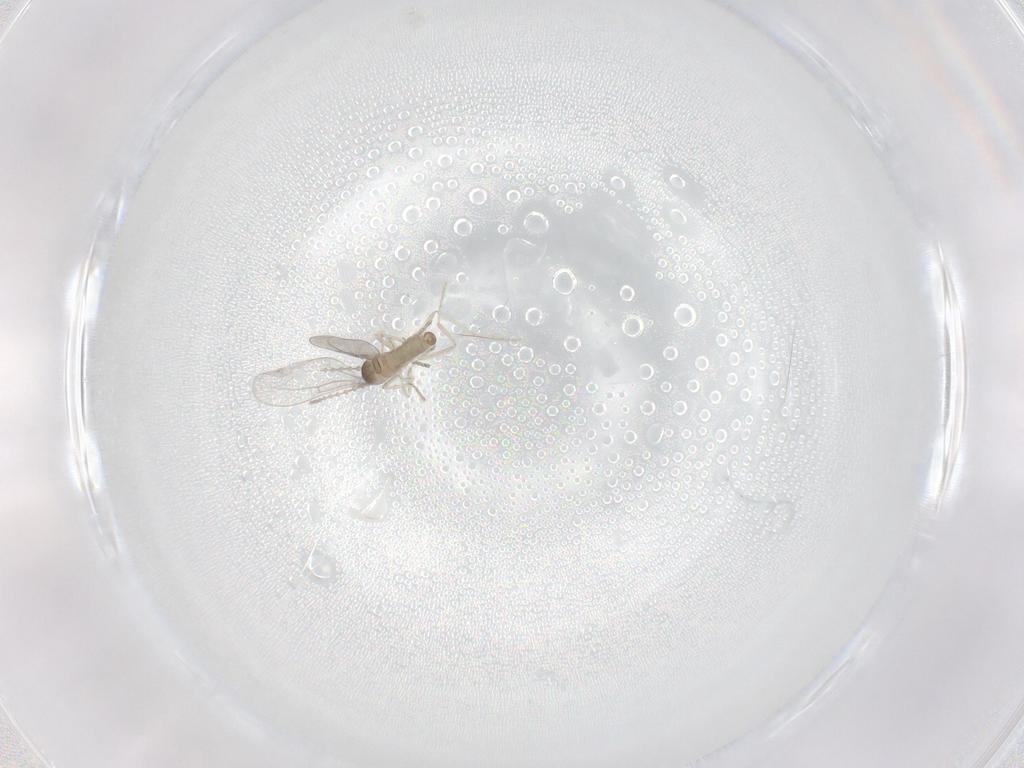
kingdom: Animalia
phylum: Arthropoda
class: Insecta
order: Diptera
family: Cecidomyiidae
